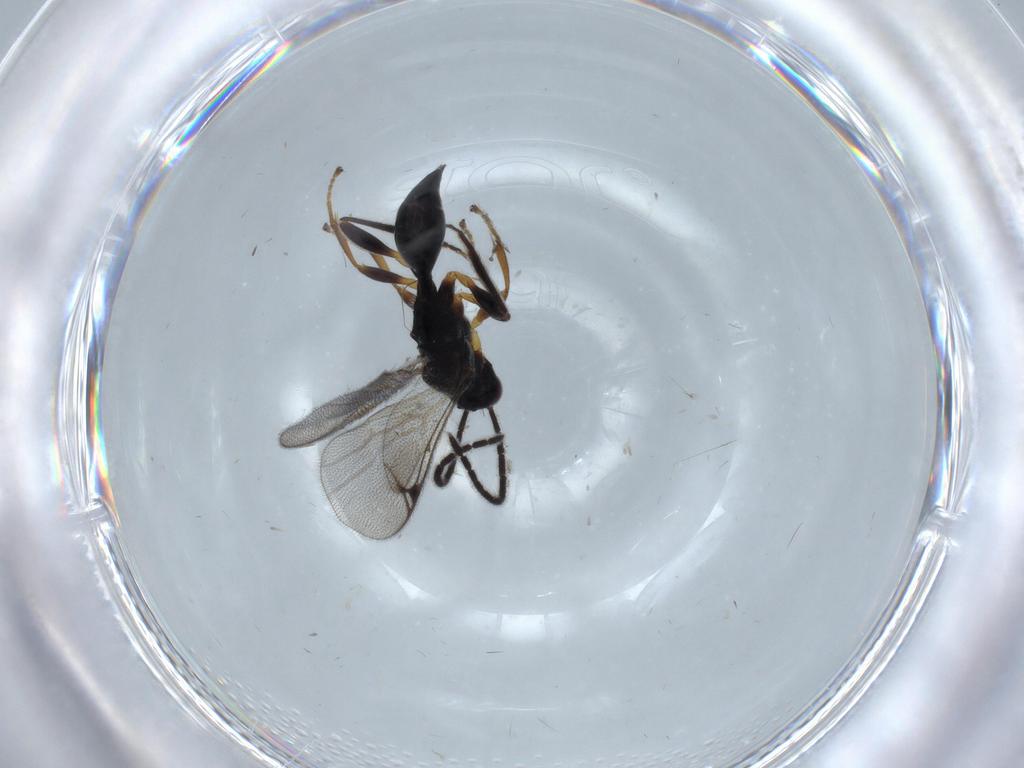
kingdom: Animalia
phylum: Arthropoda
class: Insecta
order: Hymenoptera
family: Proctotrupidae
